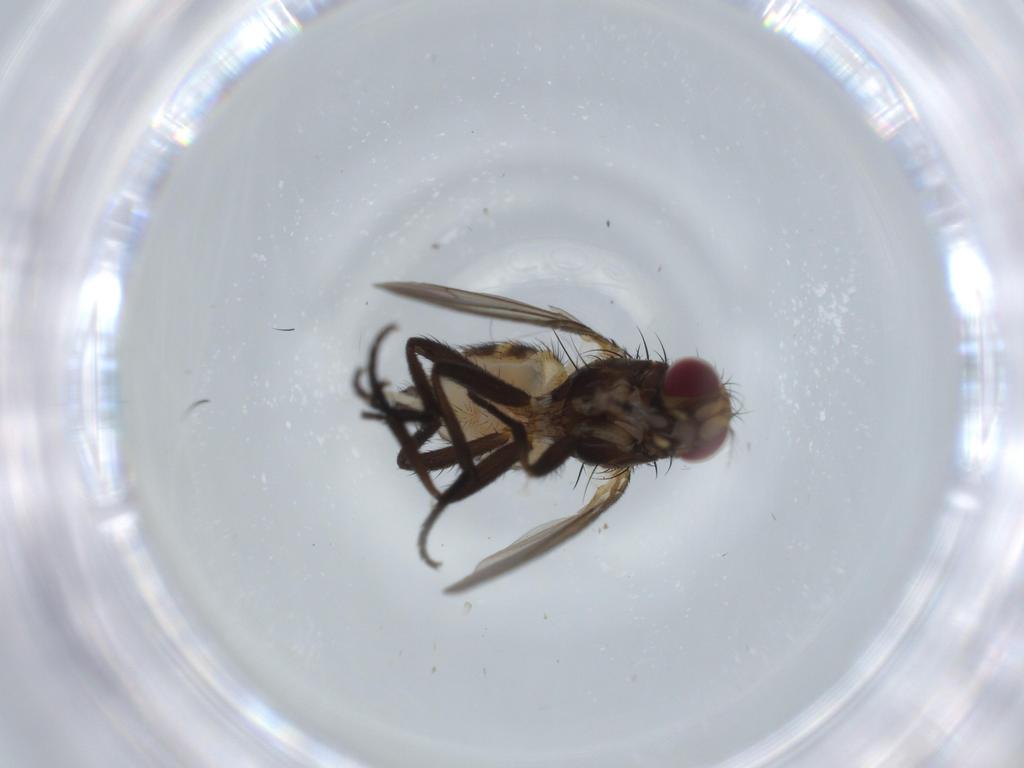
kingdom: Animalia
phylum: Arthropoda
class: Insecta
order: Diptera
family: Anthomyiidae
